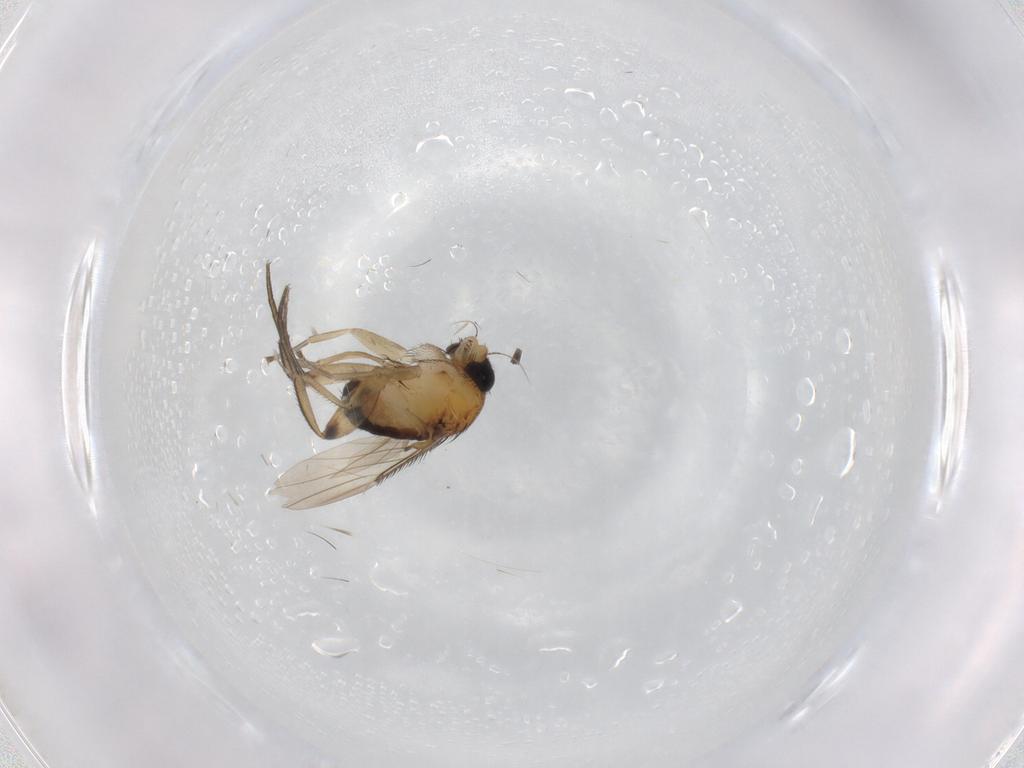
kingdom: Animalia
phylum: Arthropoda
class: Insecta
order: Diptera
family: Phoridae
